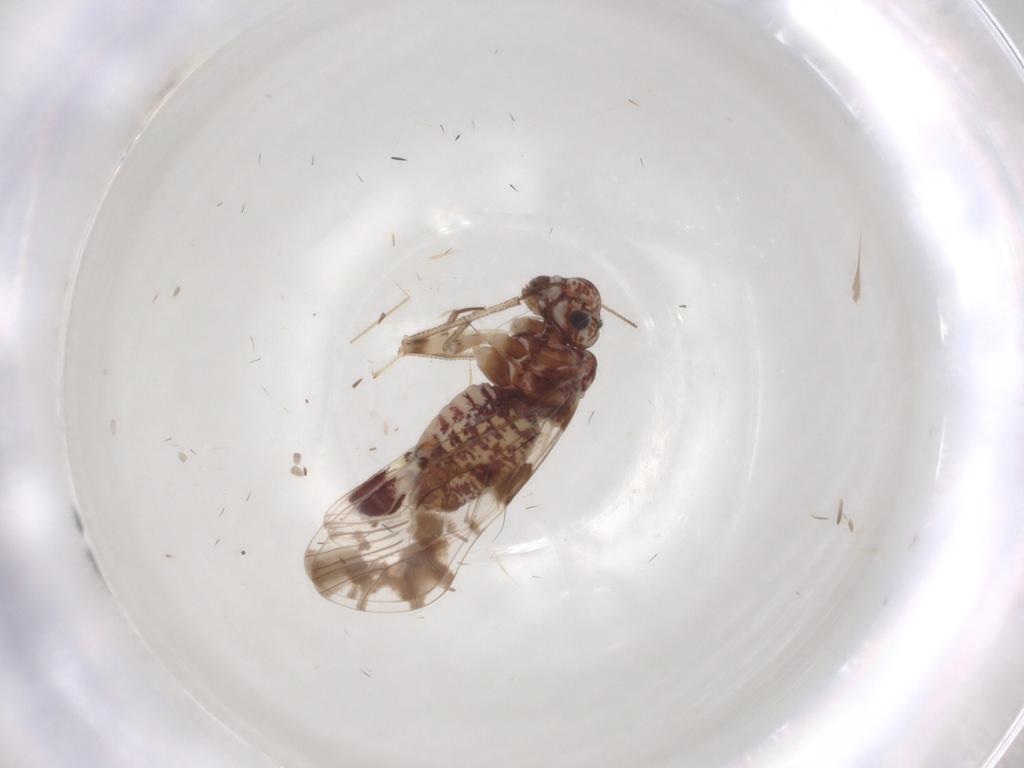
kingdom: Animalia
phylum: Arthropoda
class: Insecta
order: Psocodea
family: Psocidae
